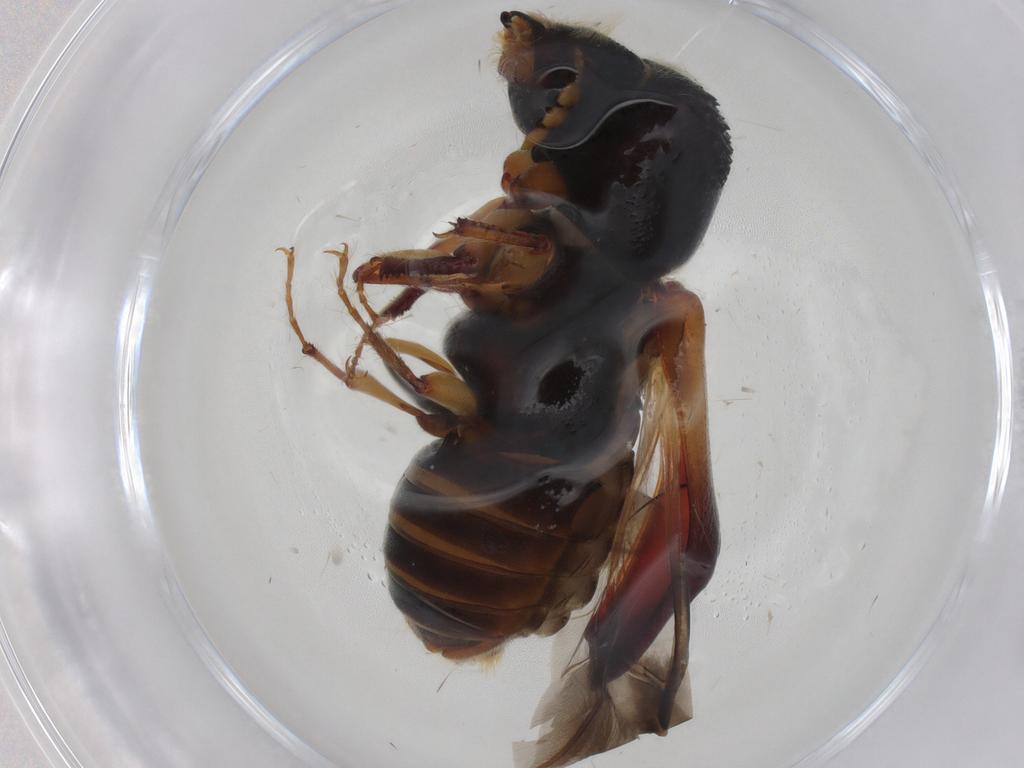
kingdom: Animalia
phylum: Arthropoda
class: Insecta
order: Coleoptera
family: Bostrichidae
